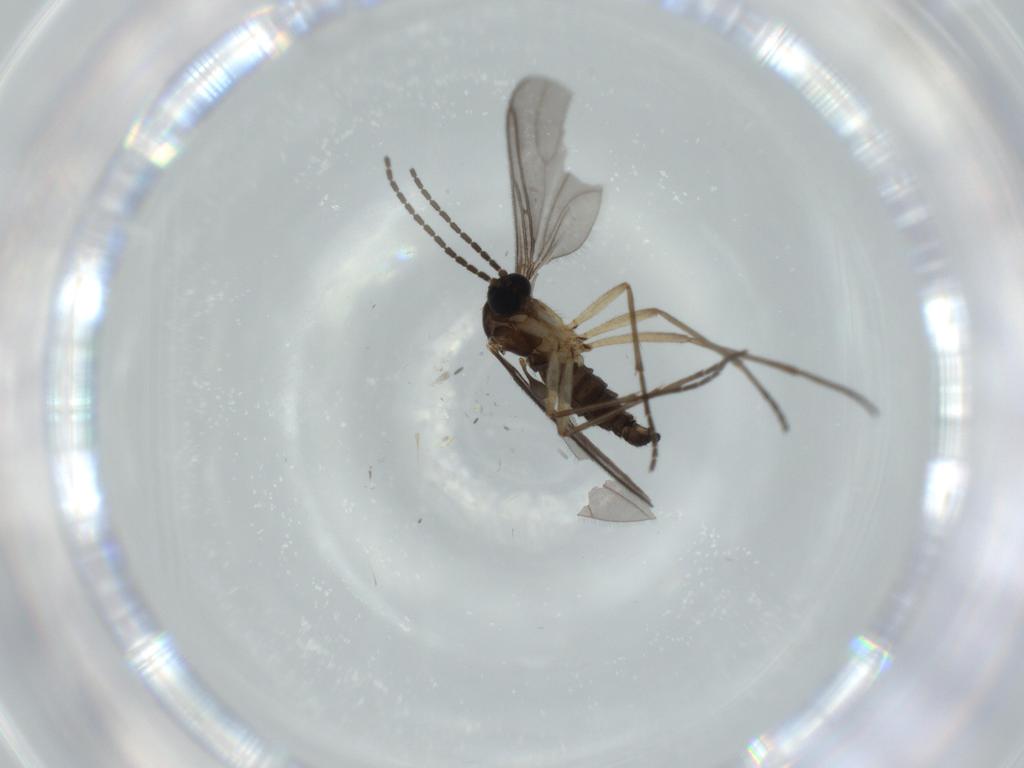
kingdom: Animalia
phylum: Arthropoda
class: Insecta
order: Diptera
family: Sciaridae
